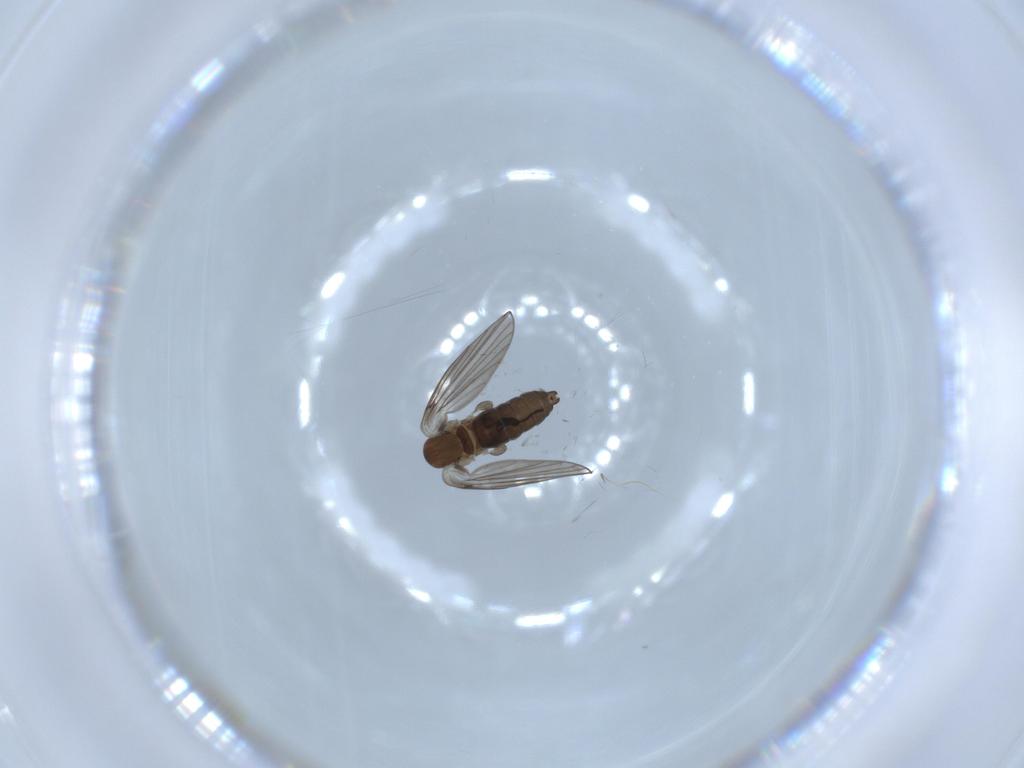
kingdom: Animalia
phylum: Arthropoda
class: Insecta
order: Diptera
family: Psychodidae
